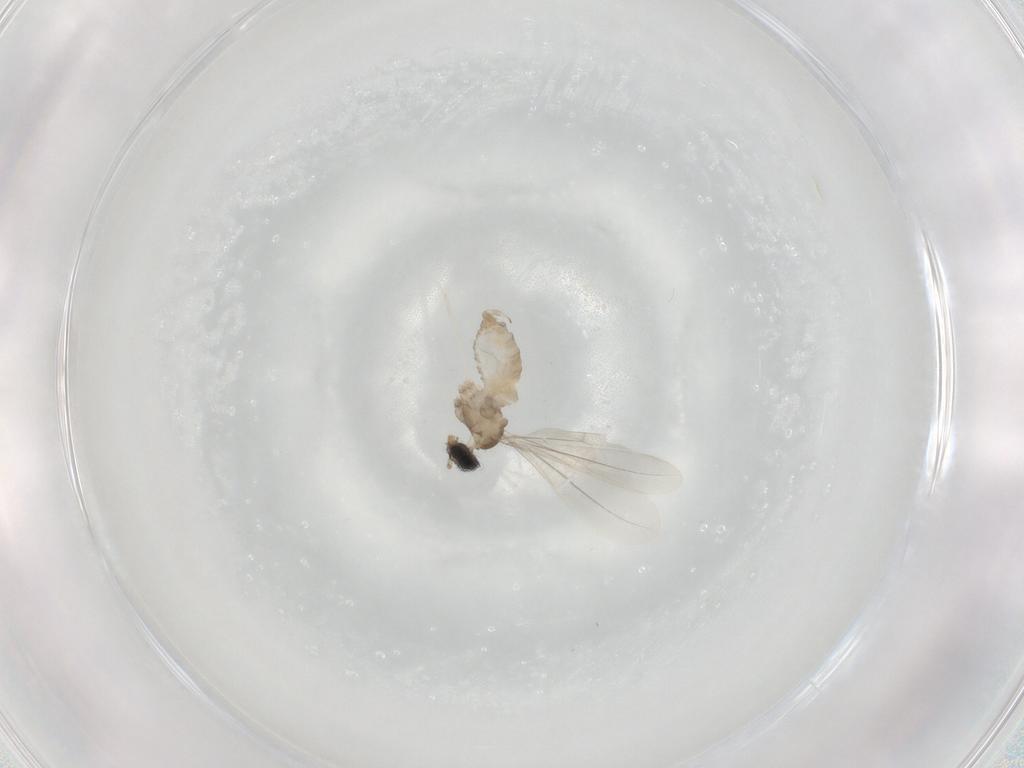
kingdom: Animalia
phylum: Arthropoda
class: Insecta
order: Diptera
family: Cecidomyiidae
